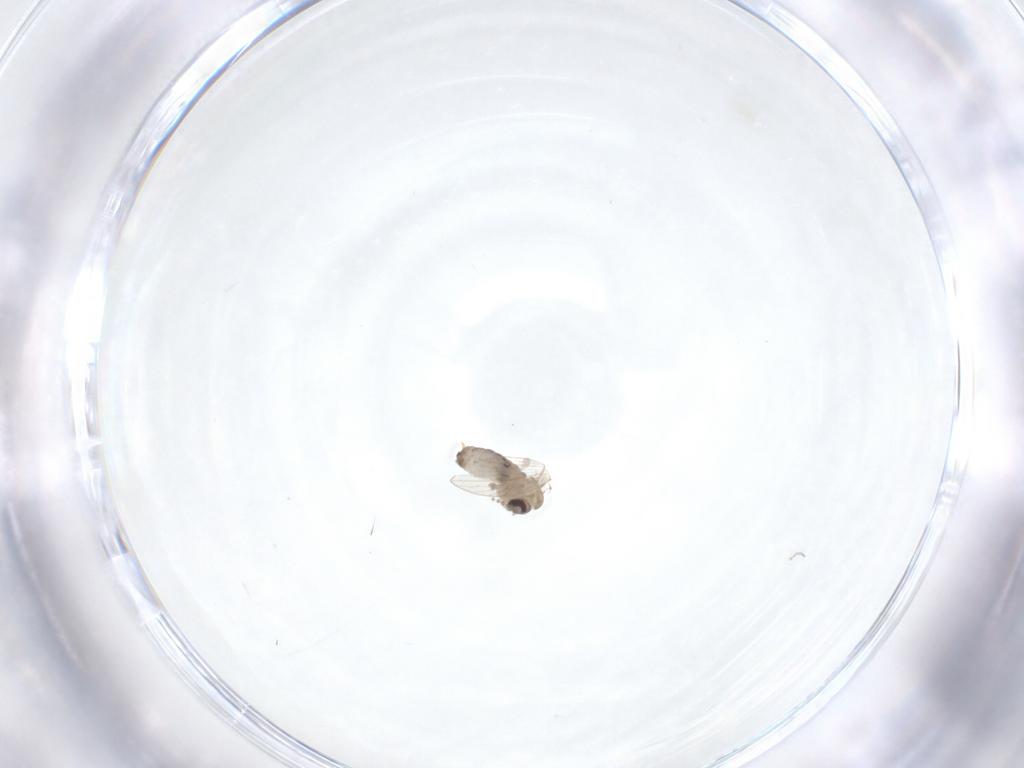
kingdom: Animalia
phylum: Arthropoda
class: Insecta
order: Diptera
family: Psychodidae
